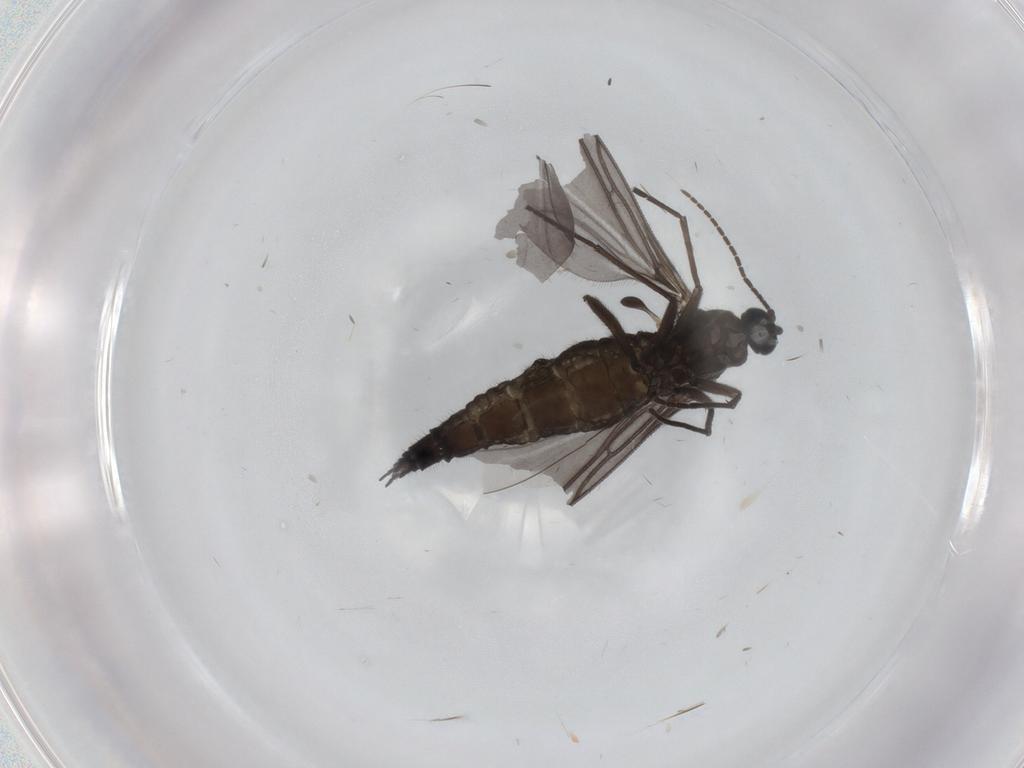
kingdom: Animalia
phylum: Arthropoda
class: Insecta
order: Diptera
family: Sciaridae
